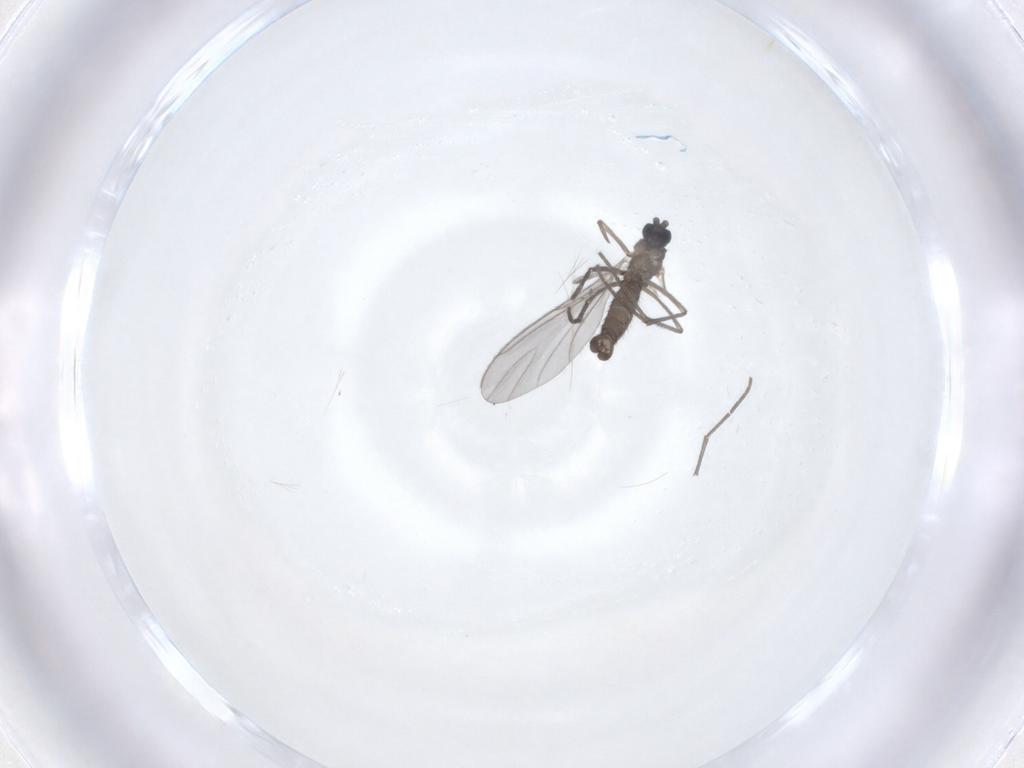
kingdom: Animalia
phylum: Arthropoda
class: Insecta
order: Diptera
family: Sciaridae
